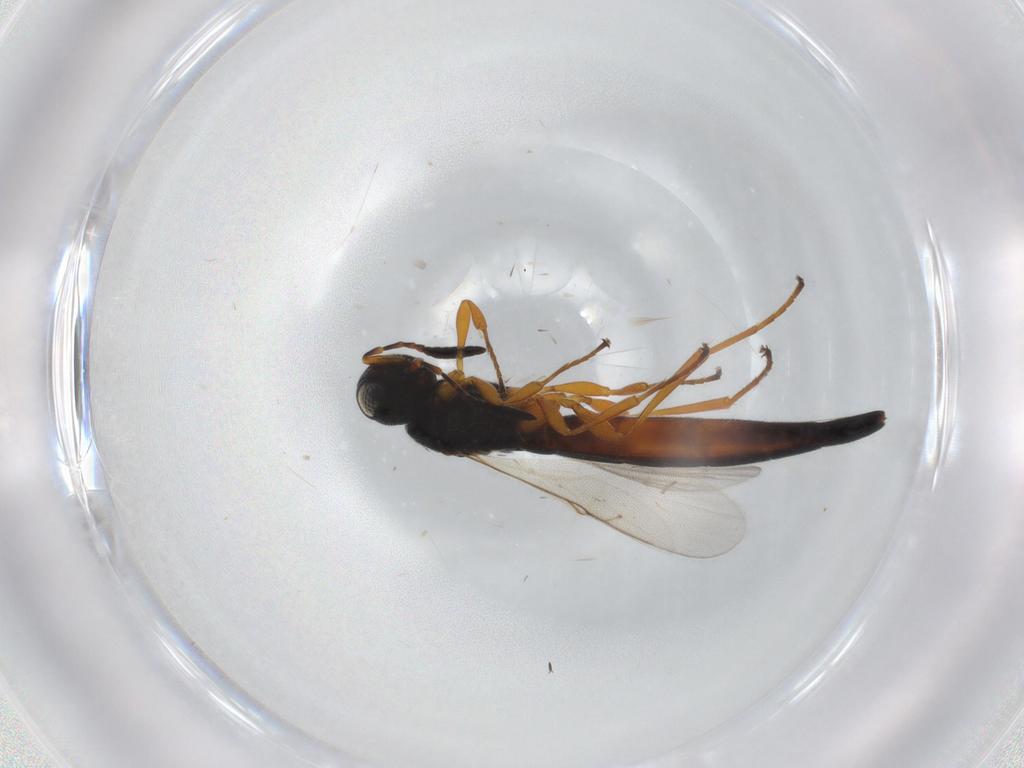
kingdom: Animalia
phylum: Arthropoda
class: Insecta
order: Hymenoptera
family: Scelionidae
